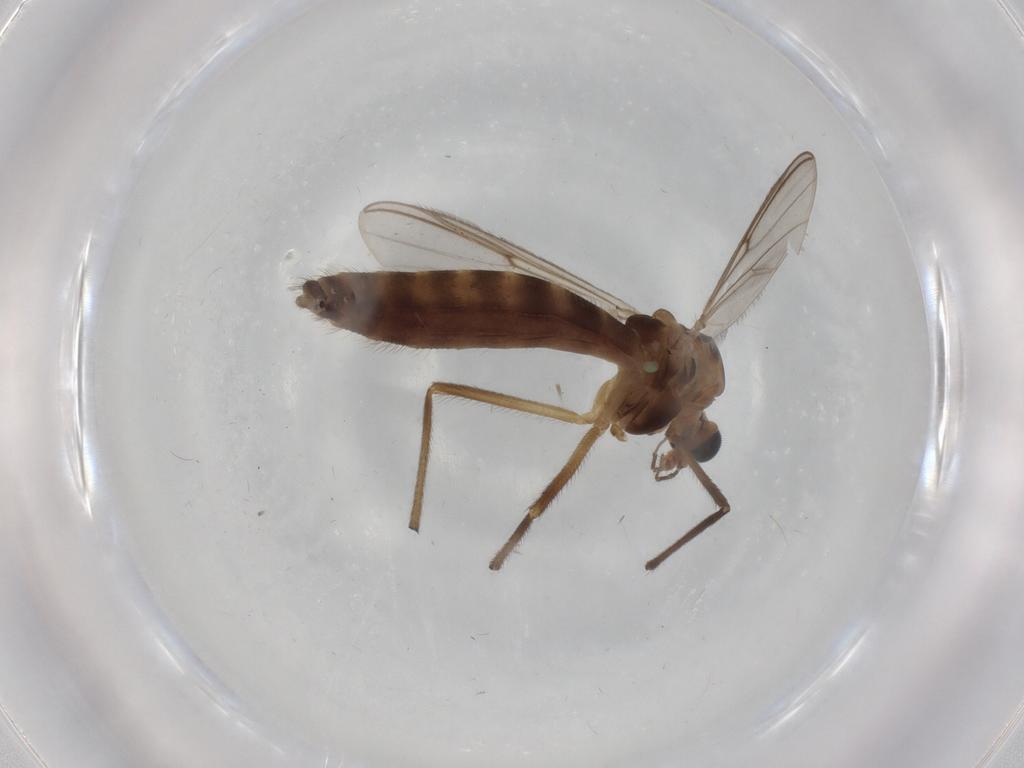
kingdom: Animalia
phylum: Arthropoda
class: Insecta
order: Diptera
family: Chironomidae
